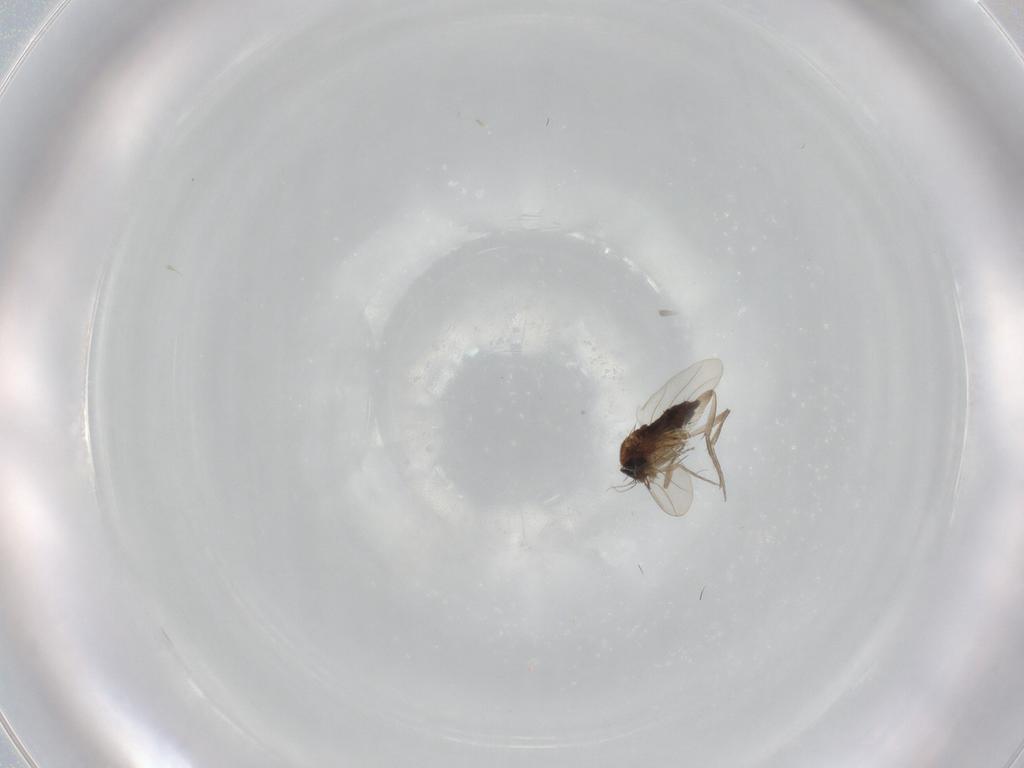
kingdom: Animalia
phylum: Arthropoda
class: Insecta
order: Diptera
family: Phoridae
